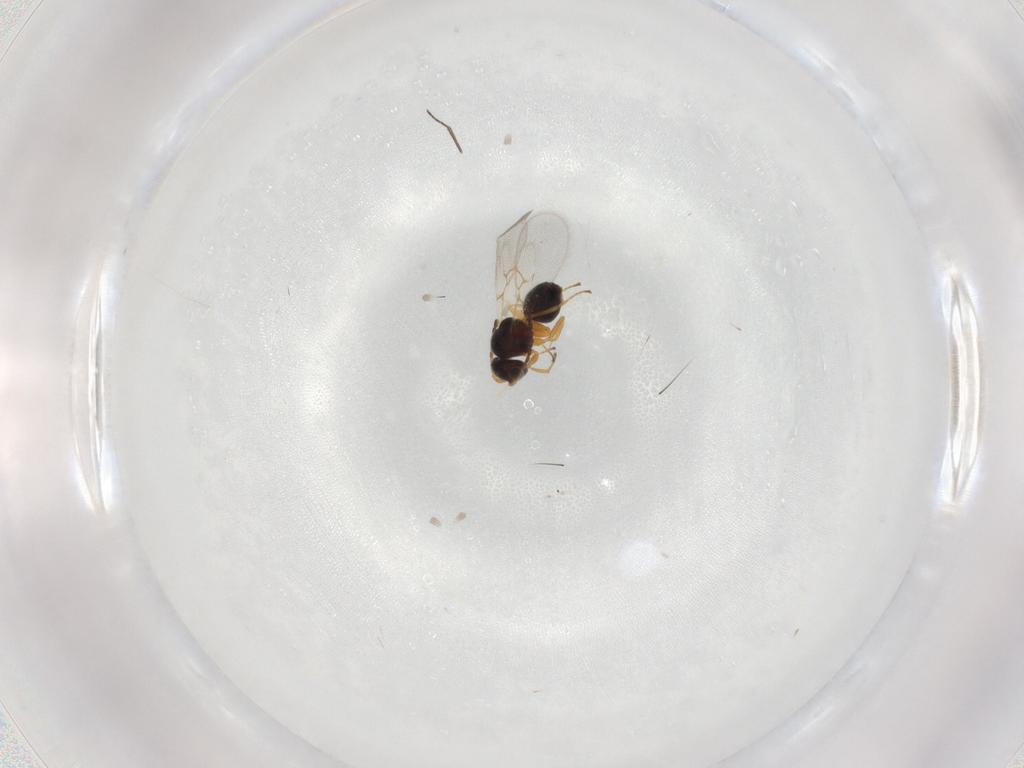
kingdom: Animalia
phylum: Arthropoda
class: Insecta
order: Hymenoptera
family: Figitidae
